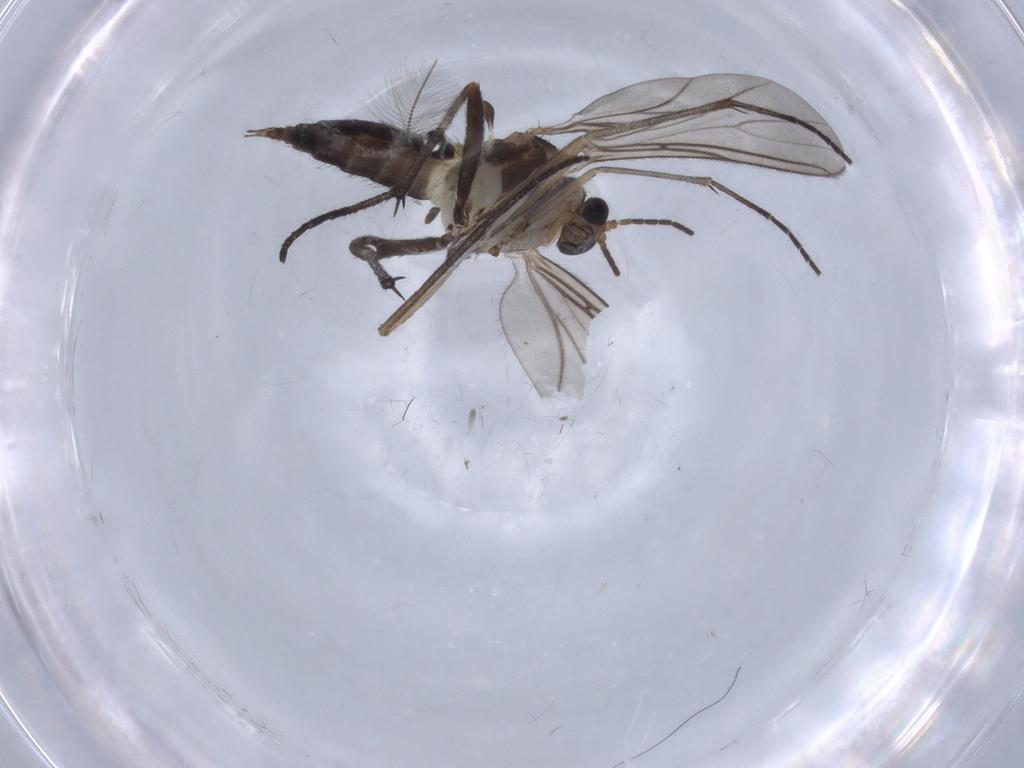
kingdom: Animalia
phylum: Arthropoda
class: Insecta
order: Diptera
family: Chironomidae
